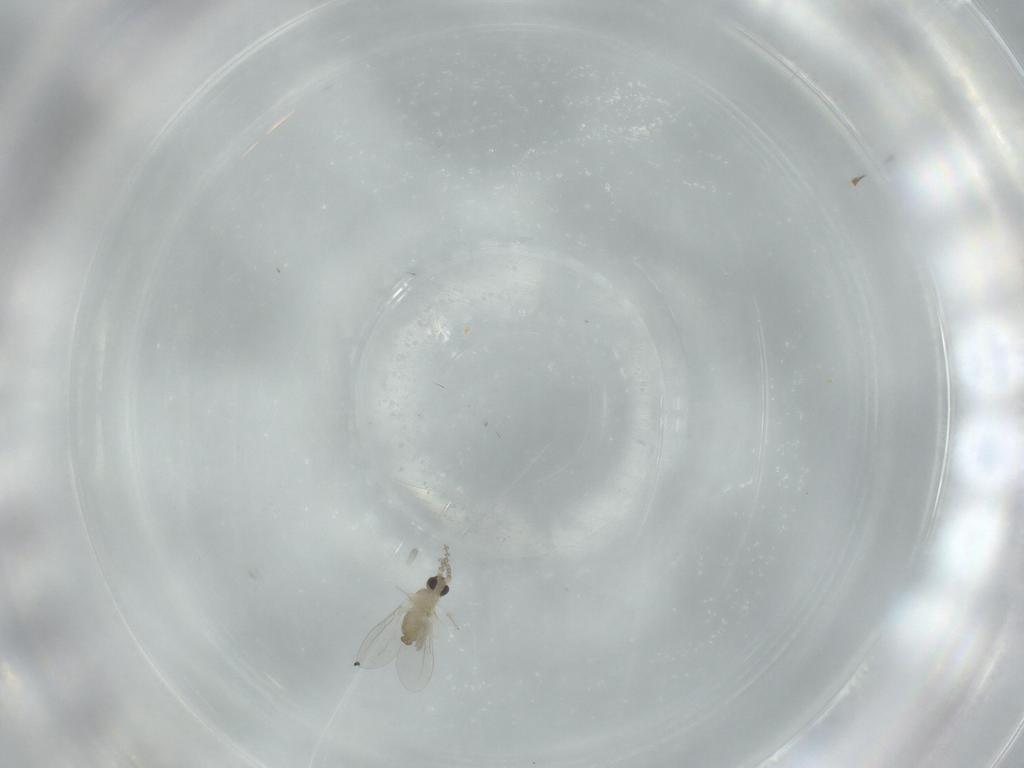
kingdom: Animalia
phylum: Arthropoda
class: Insecta
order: Diptera
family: Cecidomyiidae
